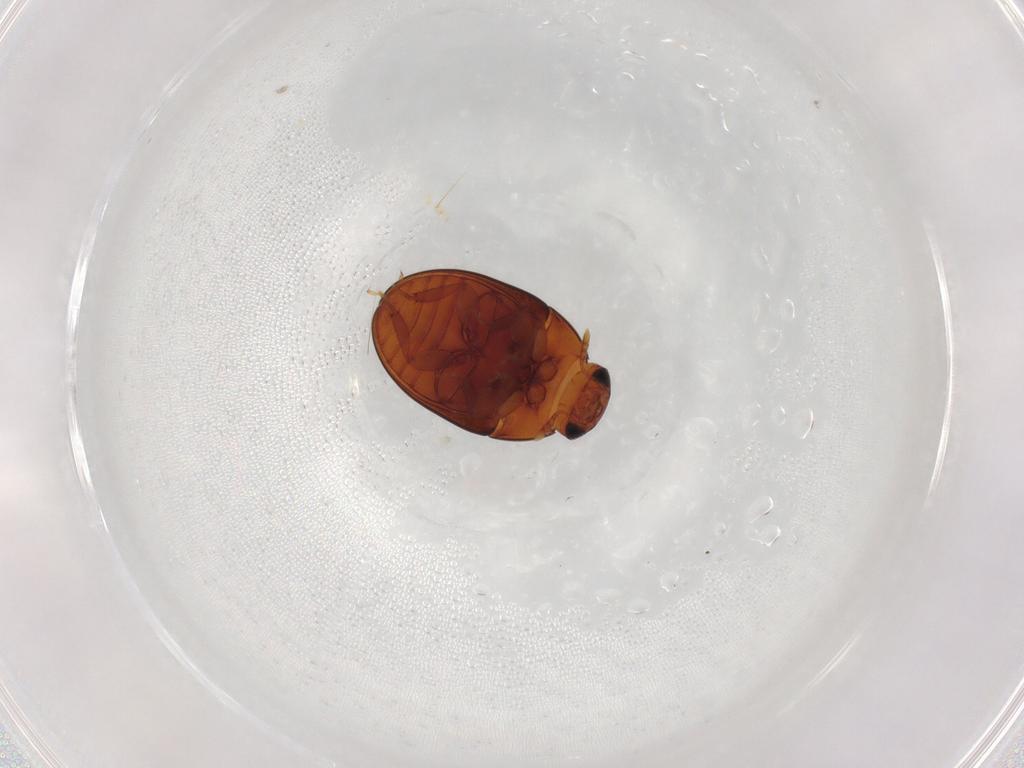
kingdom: Animalia
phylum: Arthropoda
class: Insecta
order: Coleoptera
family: Phalacridae
